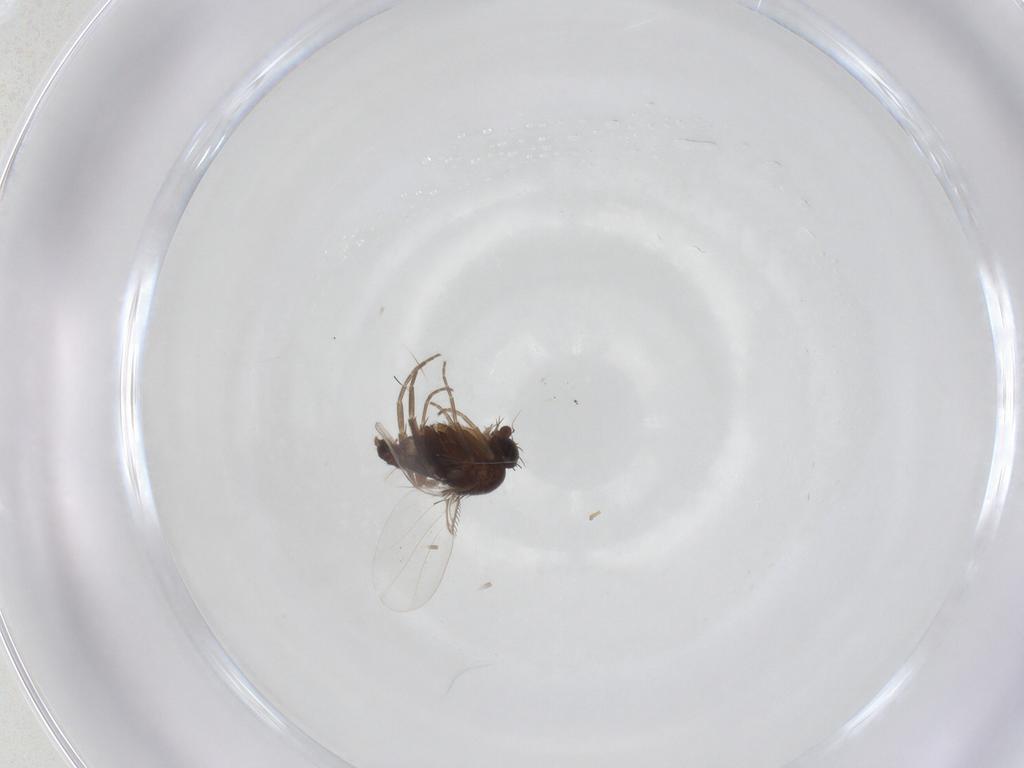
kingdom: Animalia
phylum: Arthropoda
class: Insecta
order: Diptera
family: Phoridae
